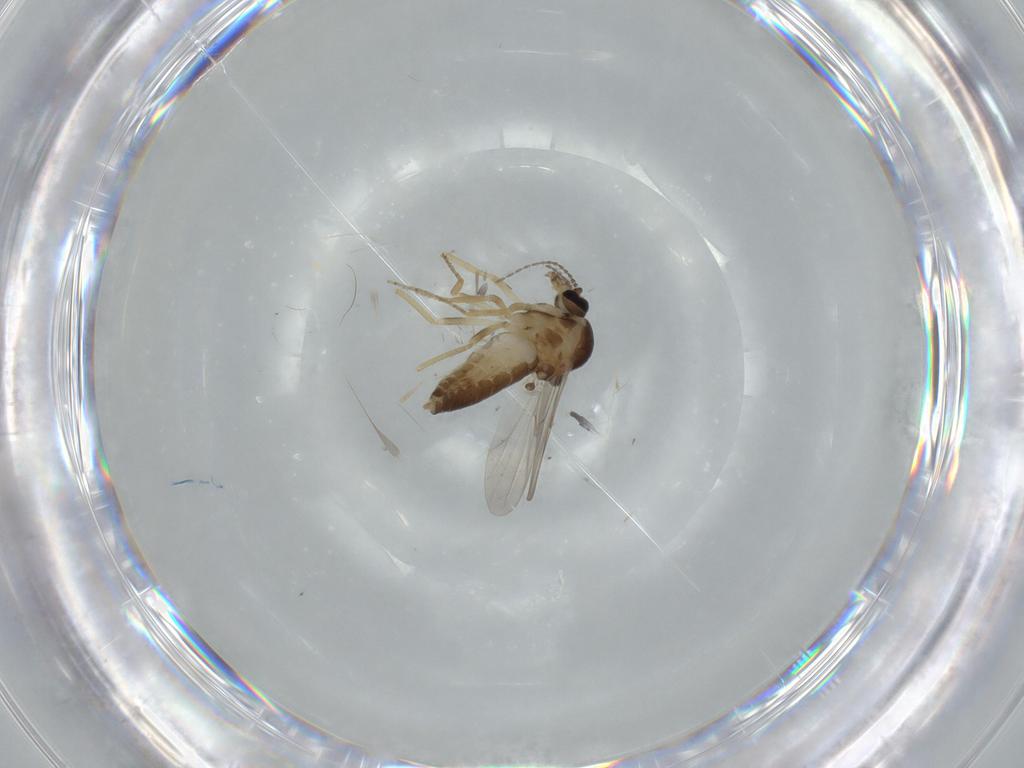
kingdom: Animalia
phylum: Arthropoda
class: Insecta
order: Diptera
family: Ceratopogonidae
